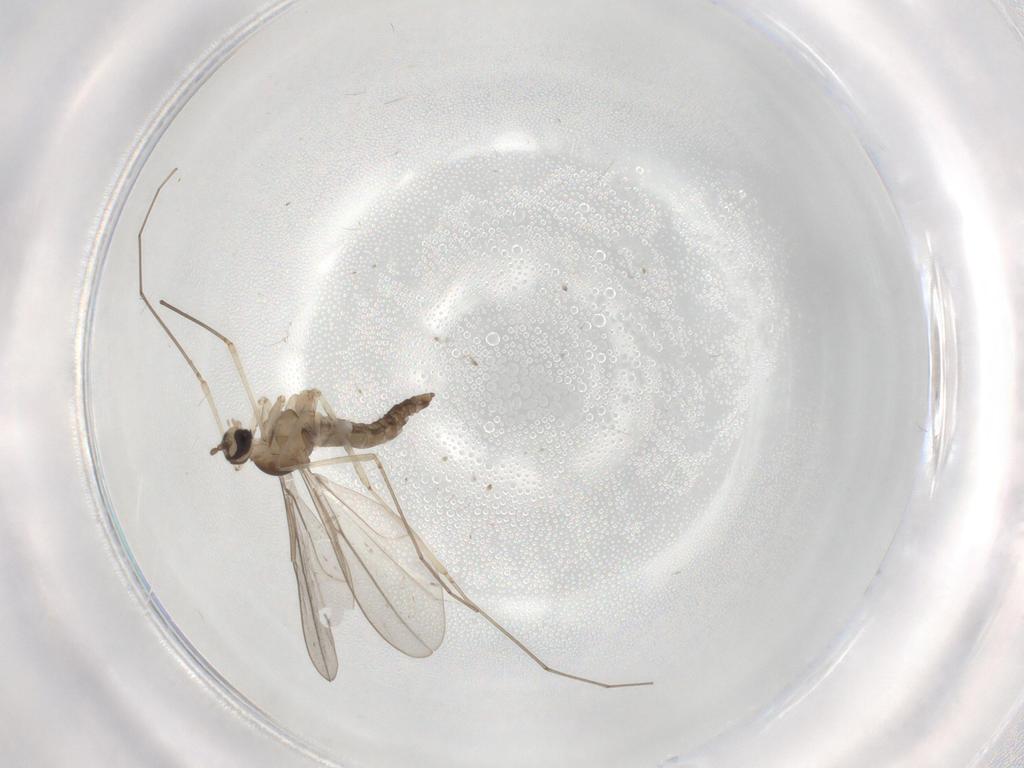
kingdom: Animalia
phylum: Arthropoda
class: Insecta
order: Diptera
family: Cecidomyiidae
